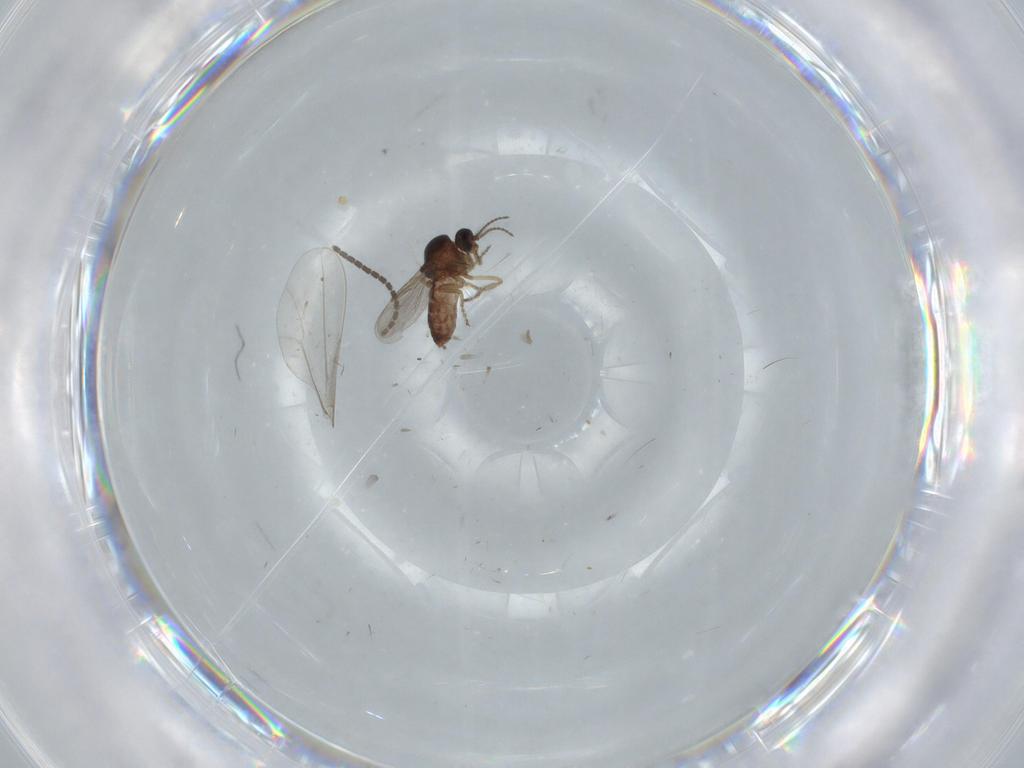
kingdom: Animalia
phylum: Arthropoda
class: Insecta
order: Diptera
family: Ceratopogonidae
